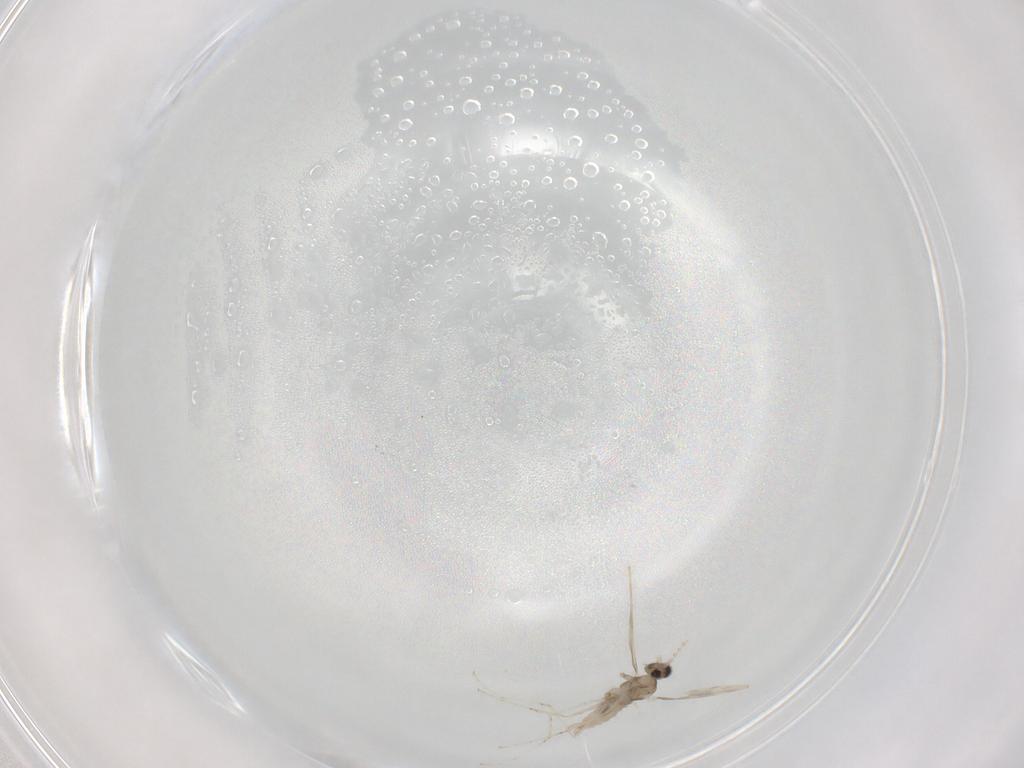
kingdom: Animalia
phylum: Arthropoda
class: Insecta
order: Diptera
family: Cecidomyiidae
